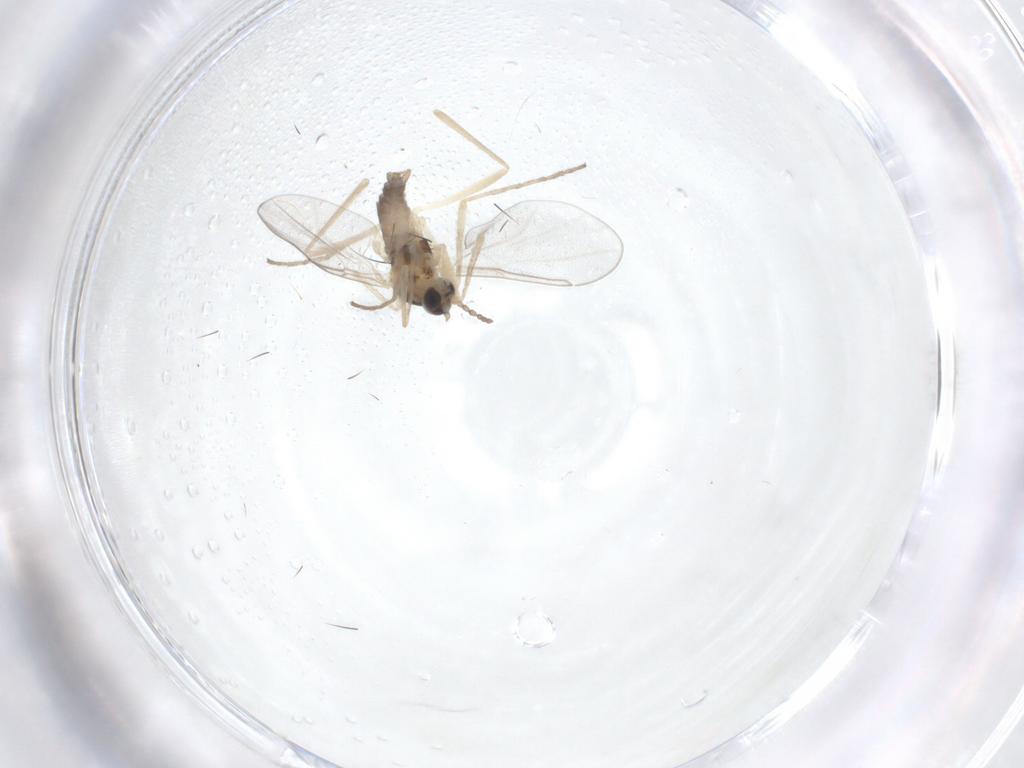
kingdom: Animalia
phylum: Arthropoda
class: Insecta
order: Diptera
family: Cecidomyiidae
